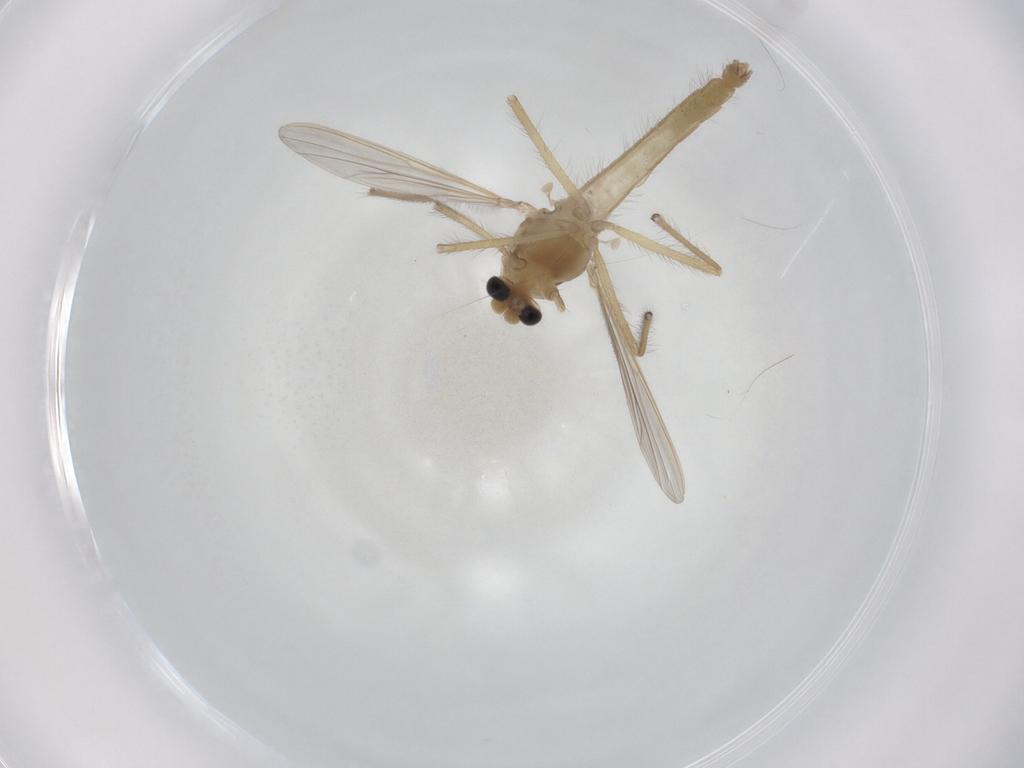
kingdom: Animalia
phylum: Arthropoda
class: Insecta
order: Diptera
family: Chironomidae
